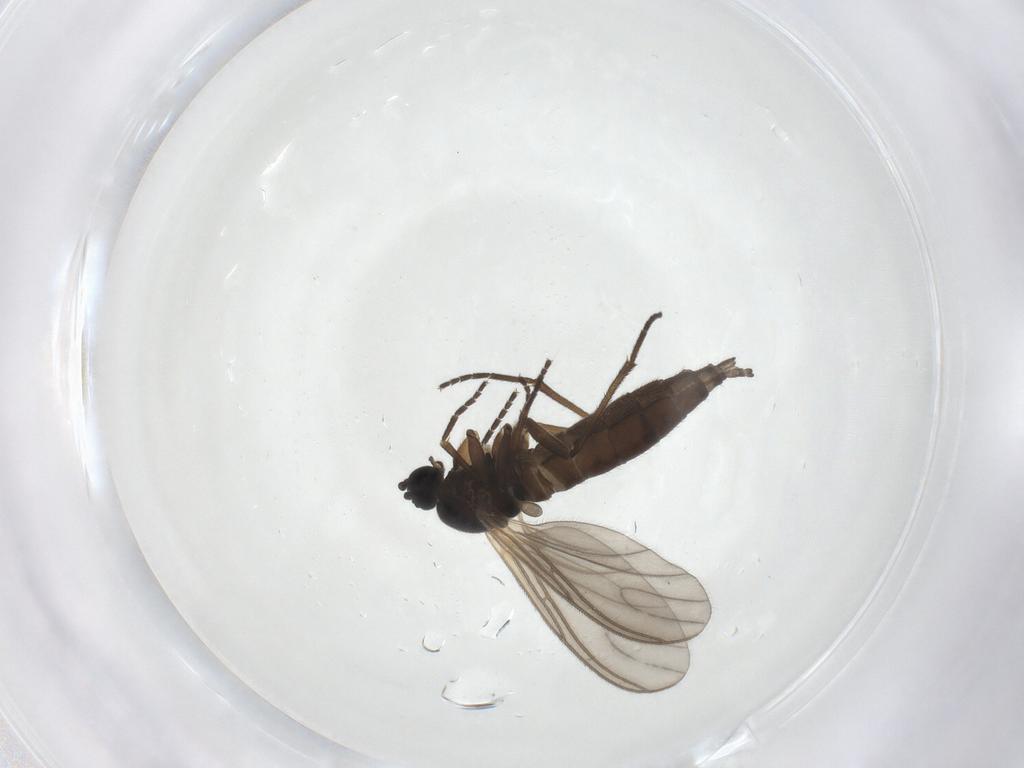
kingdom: Animalia
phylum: Arthropoda
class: Insecta
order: Diptera
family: Sciaridae
